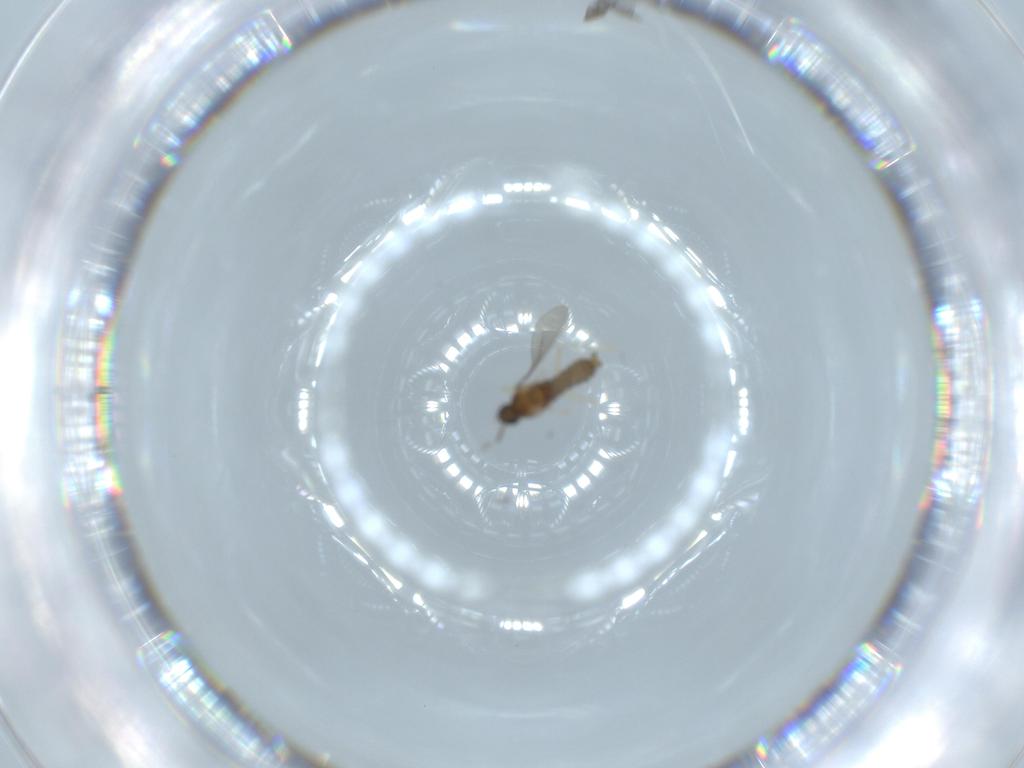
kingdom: Animalia
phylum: Arthropoda
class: Insecta
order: Diptera
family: Chironomidae
